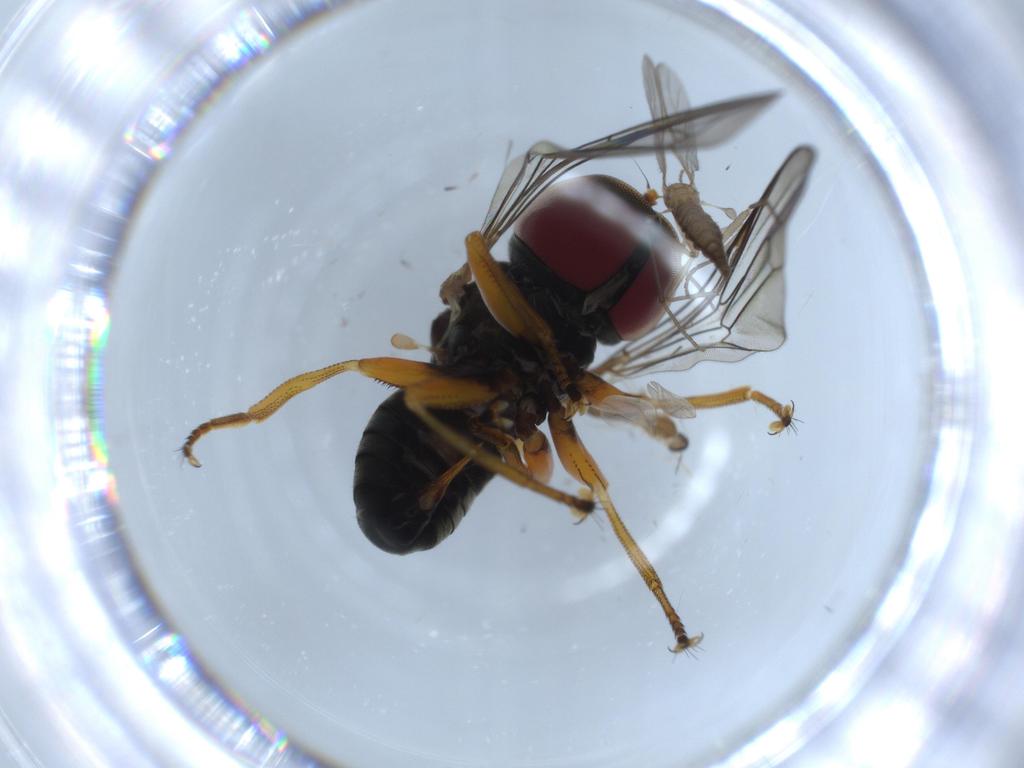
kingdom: Animalia
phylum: Arthropoda
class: Insecta
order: Diptera
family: Sciaridae
